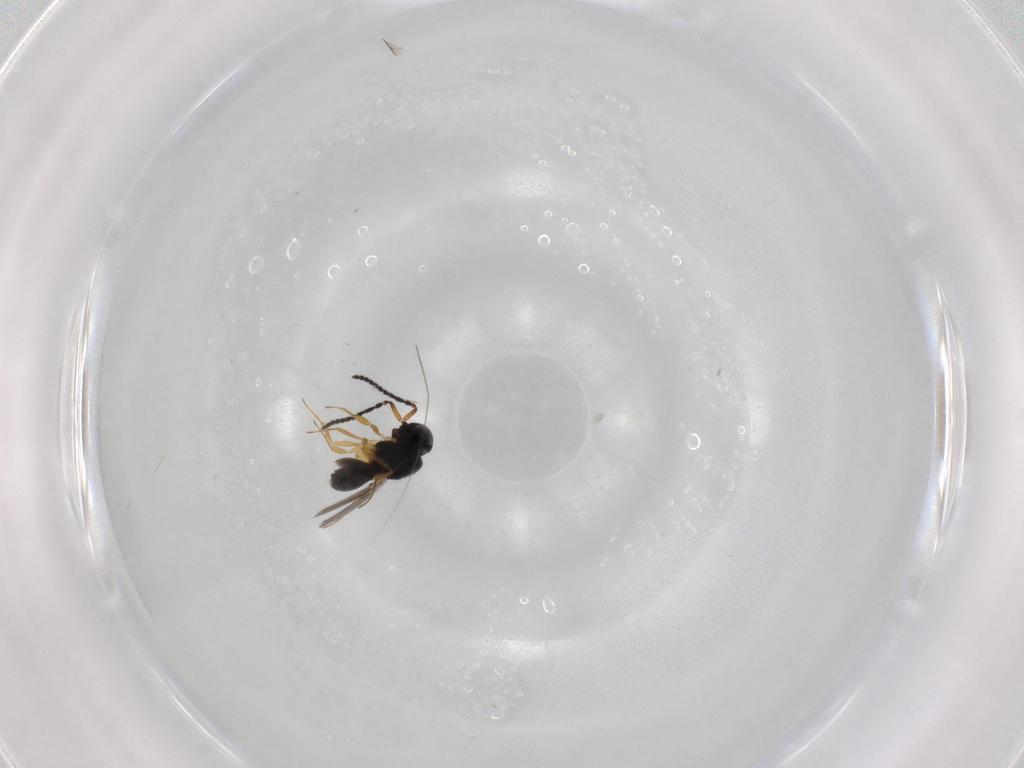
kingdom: Animalia
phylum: Arthropoda
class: Insecta
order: Hymenoptera
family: Scelionidae
